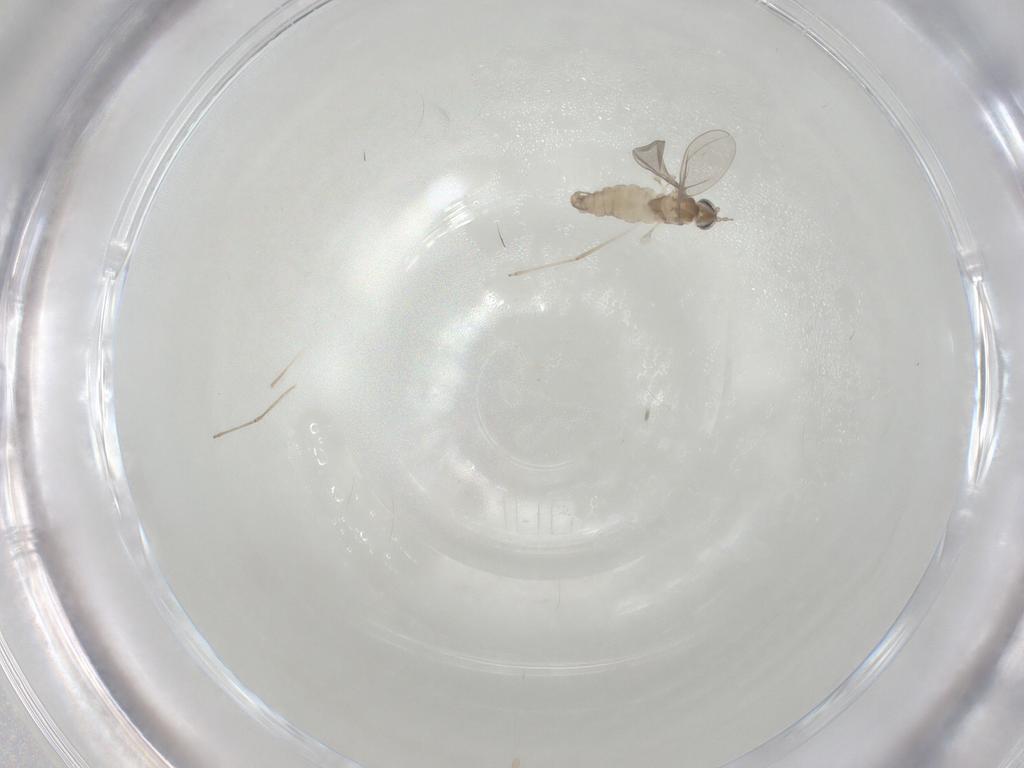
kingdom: Animalia
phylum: Arthropoda
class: Insecta
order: Diptera
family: Cecidomyiidae
